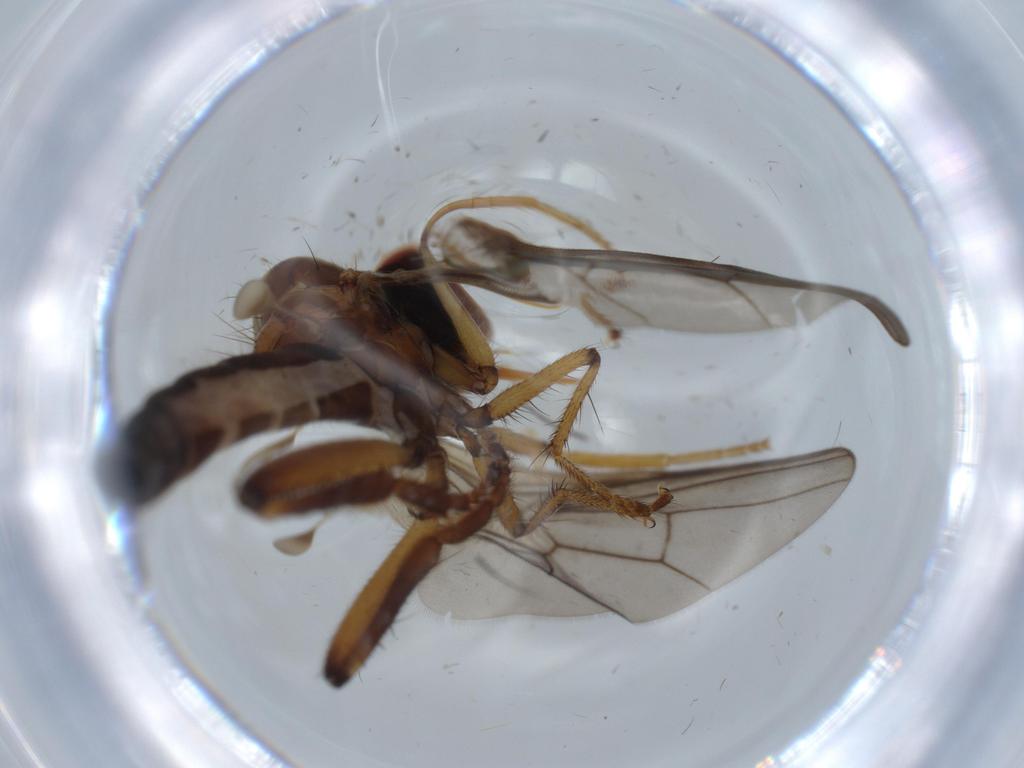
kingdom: Animalia
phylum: Arthropoda
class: Insecta
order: Diptera
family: Hybotidae
